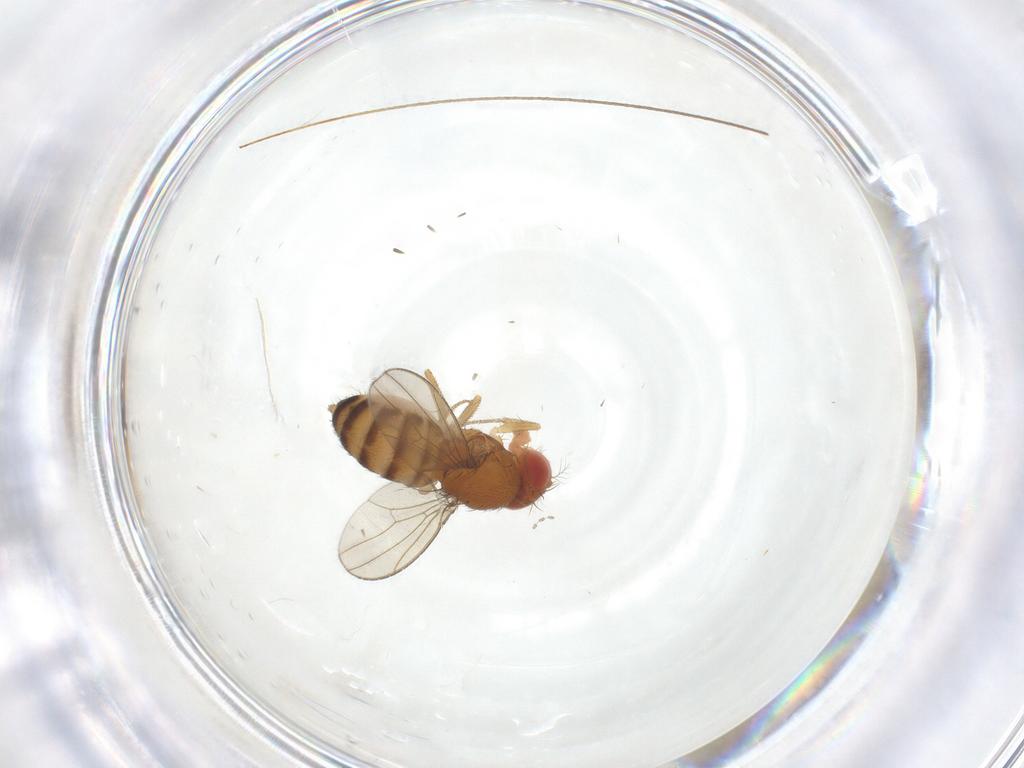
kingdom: Animalia
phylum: Arthropoda
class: Insecta
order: Diptera
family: Drosophilidae
